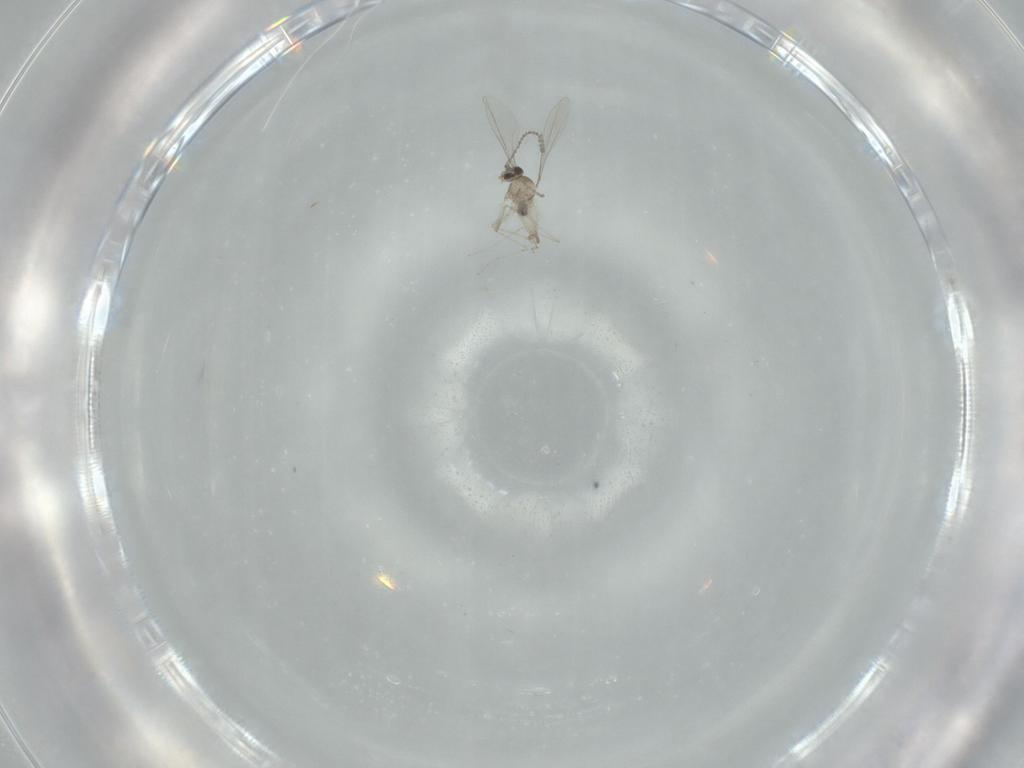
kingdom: Animalia
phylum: Arthropoda
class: Insecta
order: Diptera
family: Cecidomyiidae
